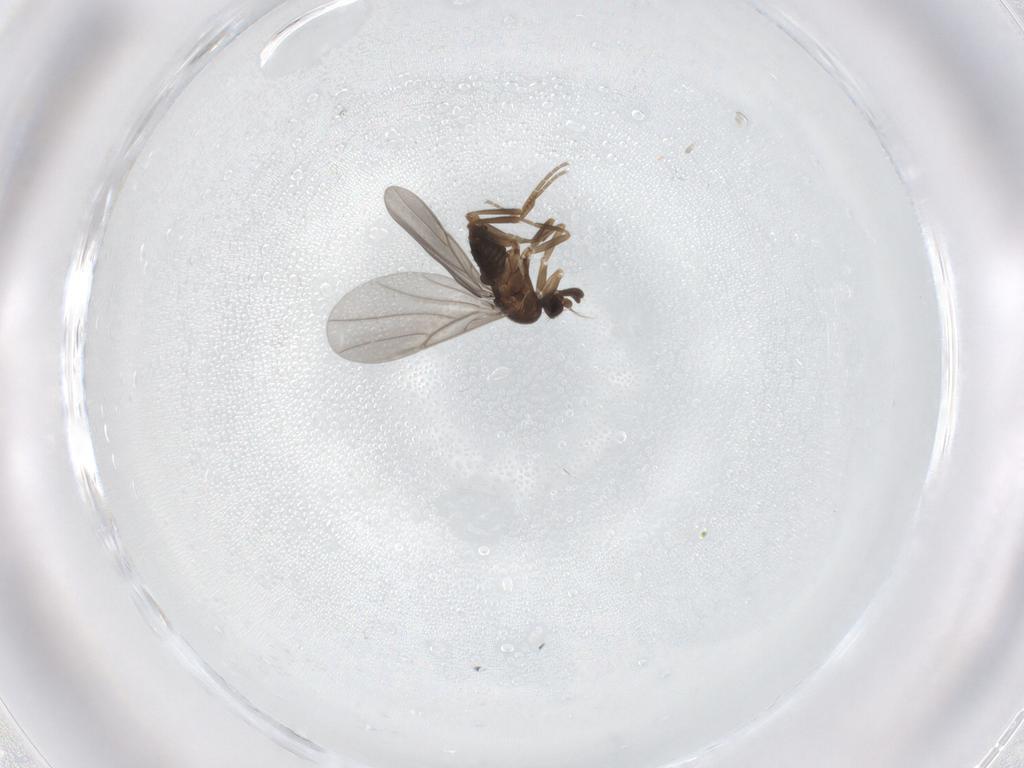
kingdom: Animalia
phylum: Arthropoda
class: Insecta
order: Diptera
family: Phoridae
